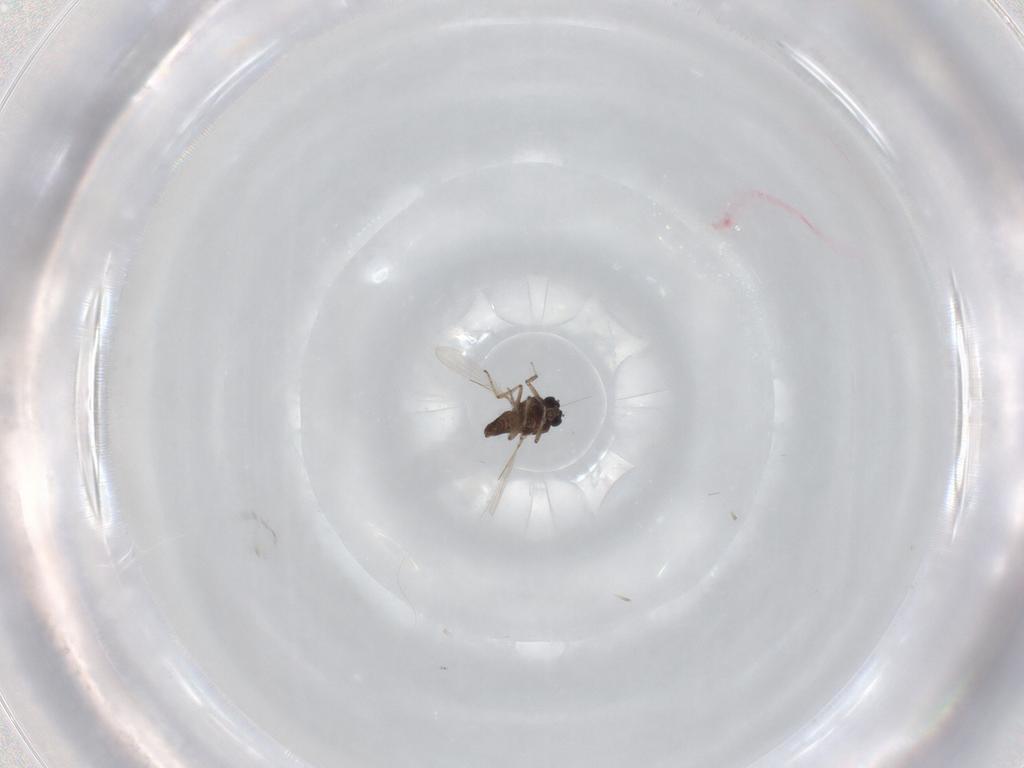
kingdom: Animalia
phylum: Arthropoda
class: Insecta
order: Diptera
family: Ceratopogonidae
